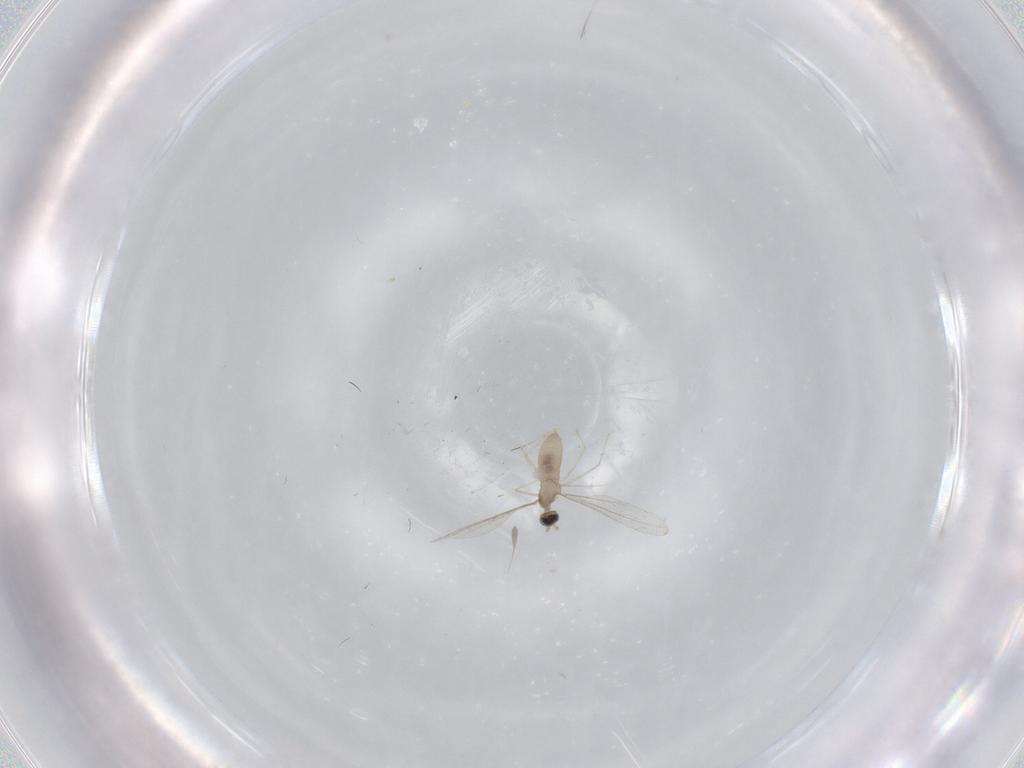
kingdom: Animalia
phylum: Arthropoda
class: Insecta
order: Diptera
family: Cecidomyiidae
